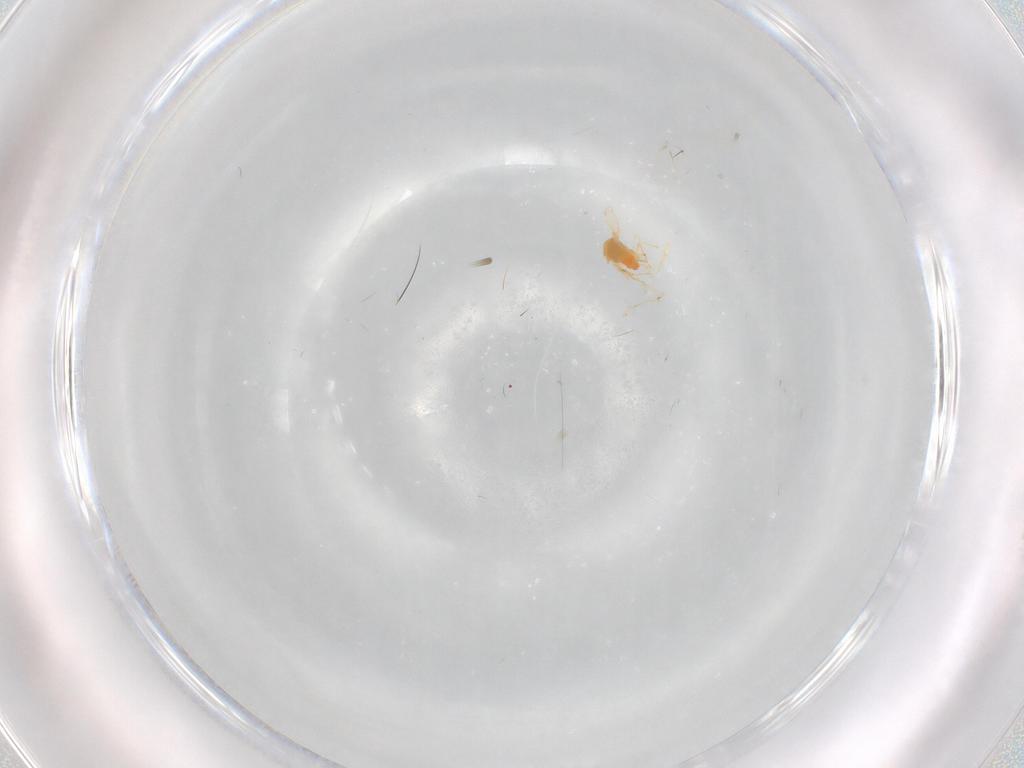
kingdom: Animalia
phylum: Arthropoda
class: Insecta
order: Hemiptera
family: Aleyrodidae
